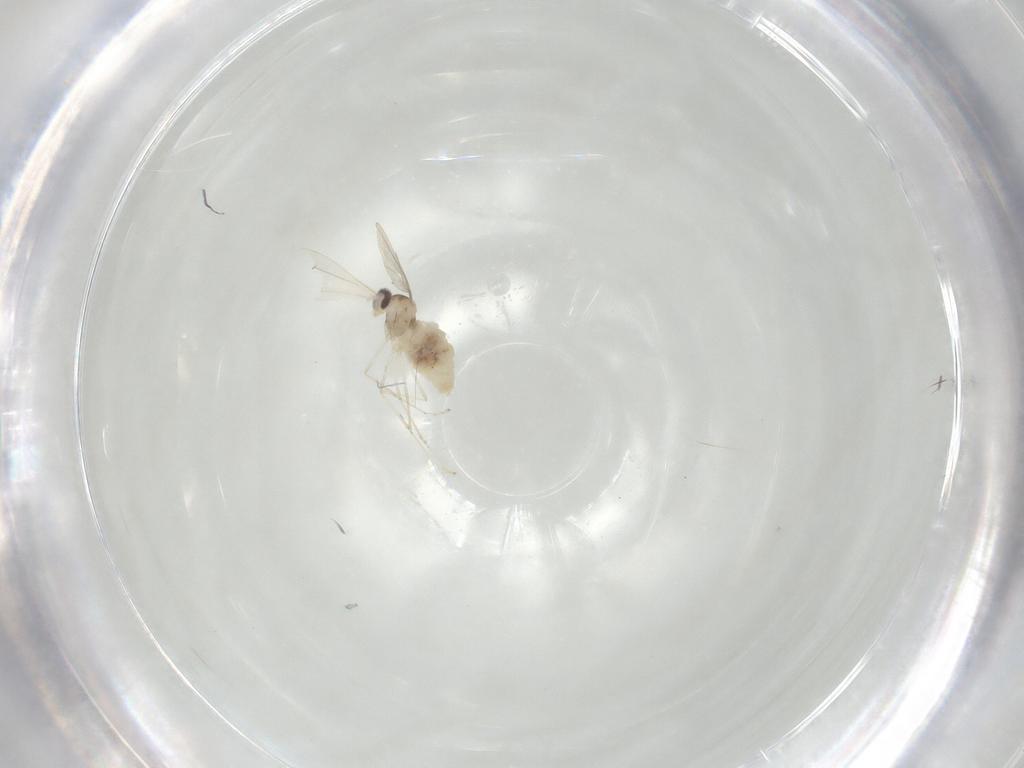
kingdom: Animalia
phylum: Arthropoda
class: Insecta
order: Diptera
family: Cecidomyiidae
